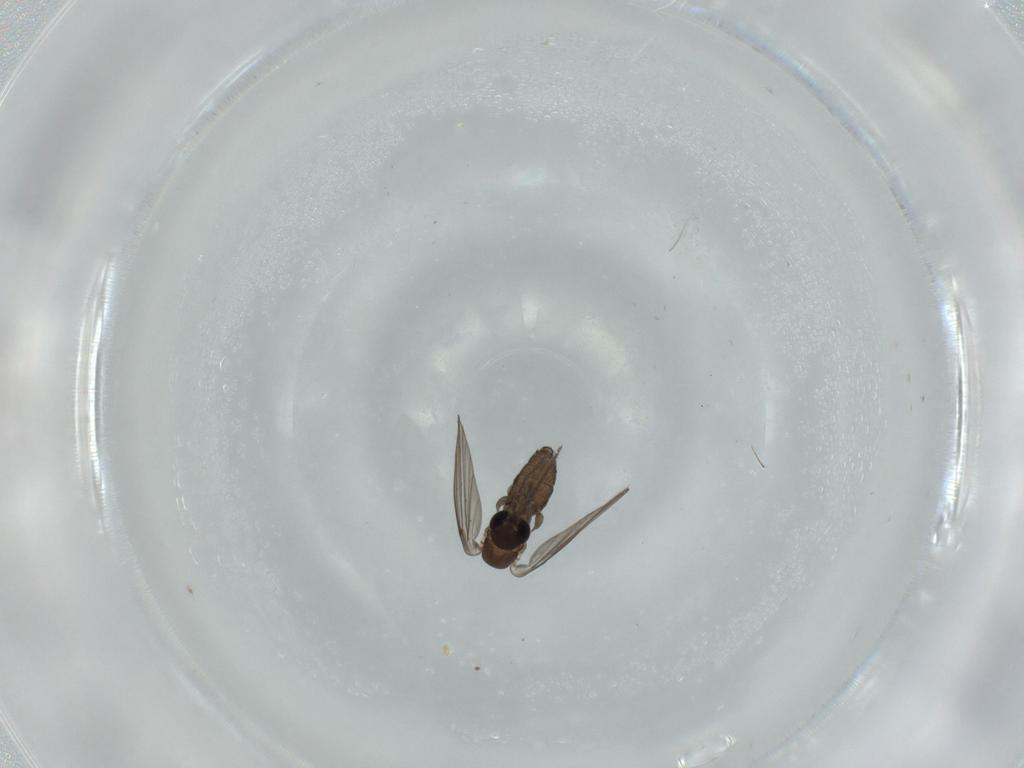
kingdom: Animalia
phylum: Arthropoda
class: Insecta
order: Diptera
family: Psychodidae
